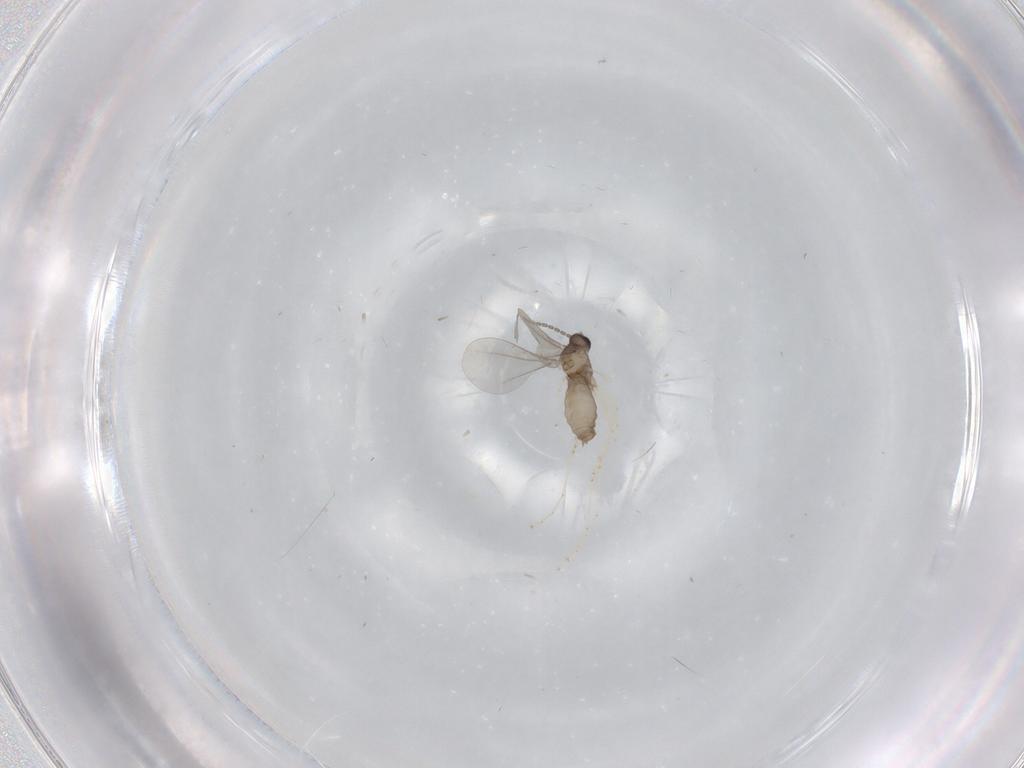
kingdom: Animalia
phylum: Arthropoda
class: Insecta
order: Diptera
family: Cecidomyiidae
